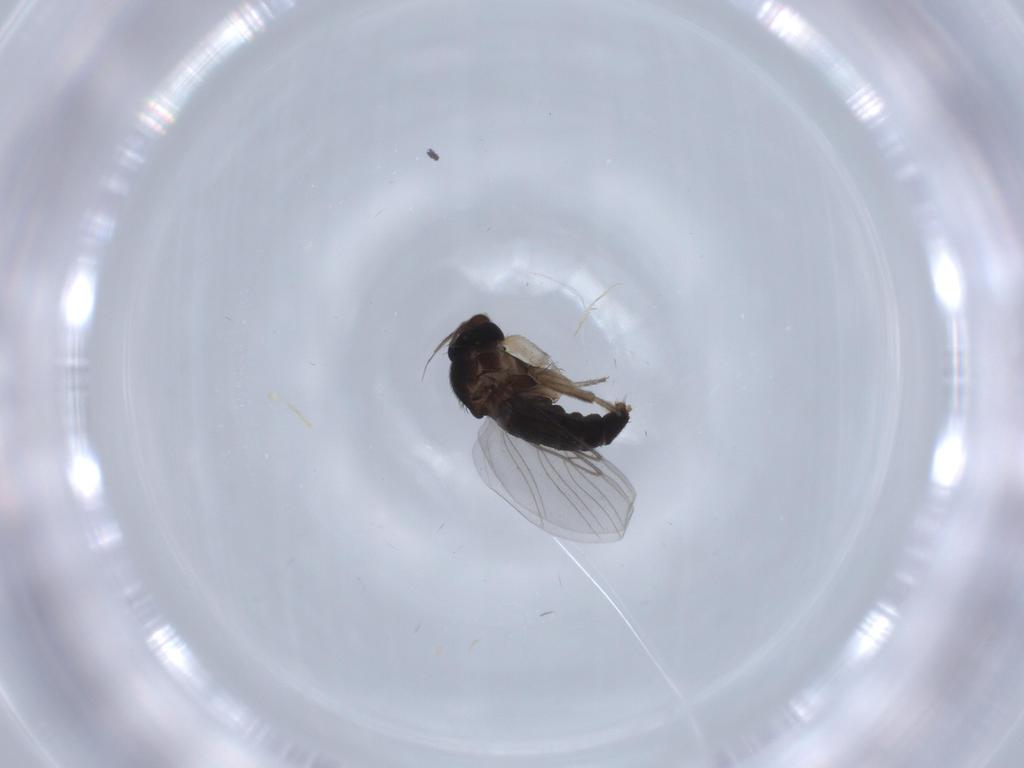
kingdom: Animalia
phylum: Arthropoda
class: Insecta
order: Diptera
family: Phoridae
